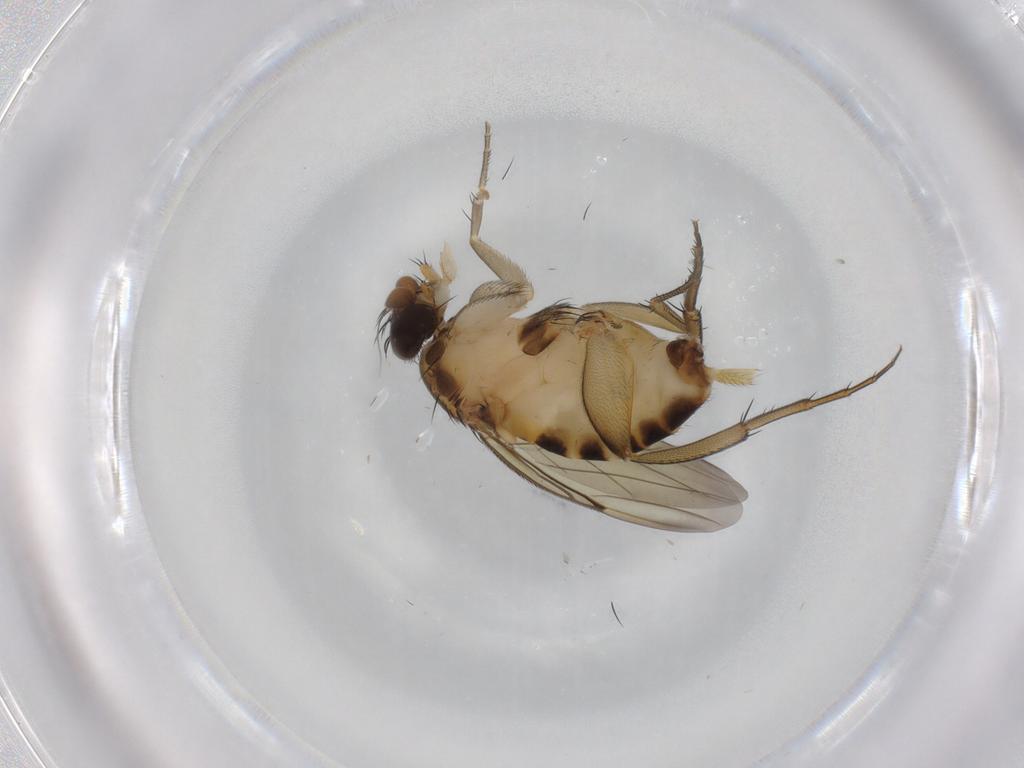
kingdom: Animalia
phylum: Arthropoda
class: Insecta
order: Diptera
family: Phoridae
